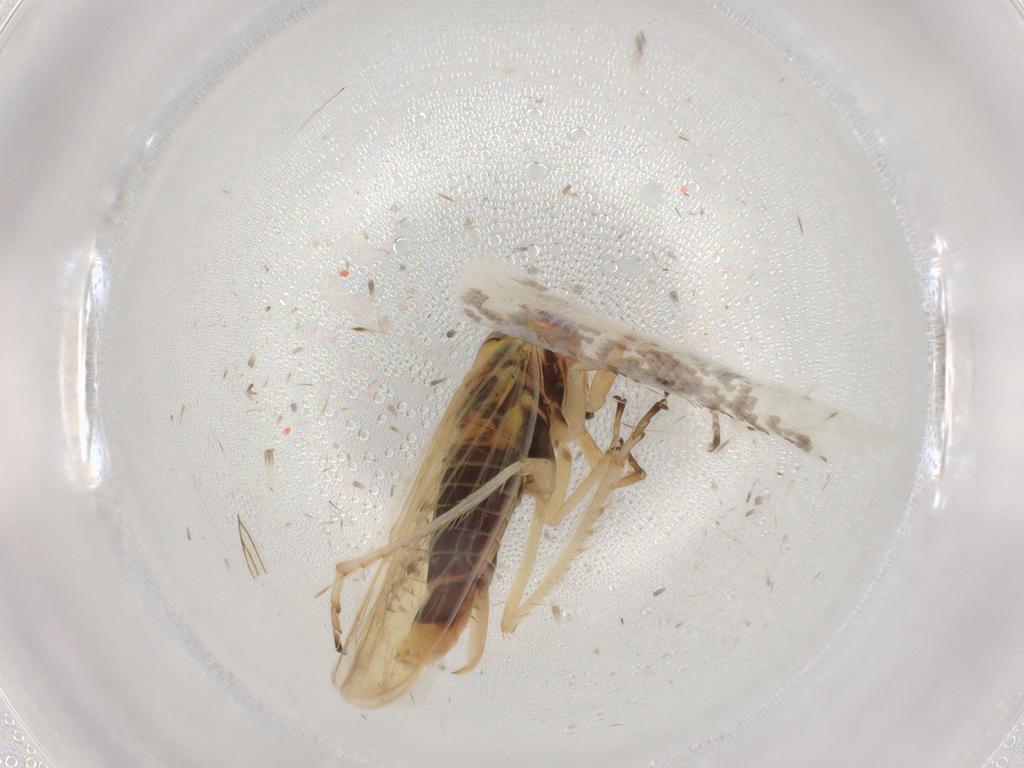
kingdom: Animalia
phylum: Arthropoda
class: Insecta
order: Hemiptera
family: Cicadellidae
